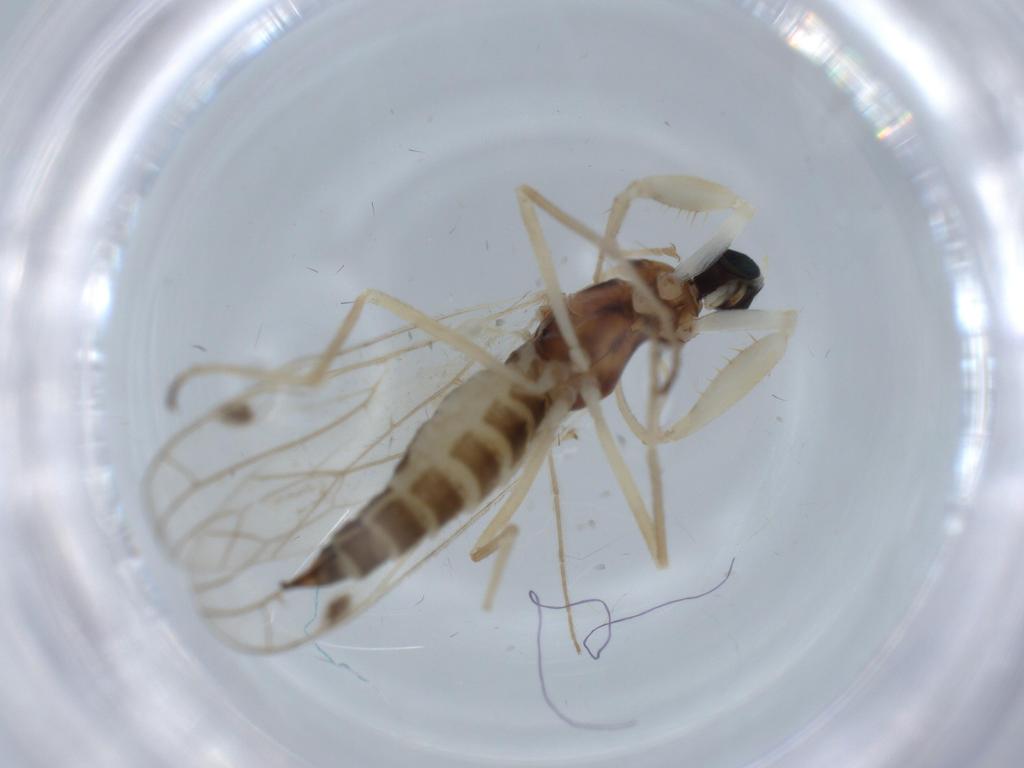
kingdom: Animalia
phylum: Arthropoda
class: Insecta
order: Diptera
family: Empididae
